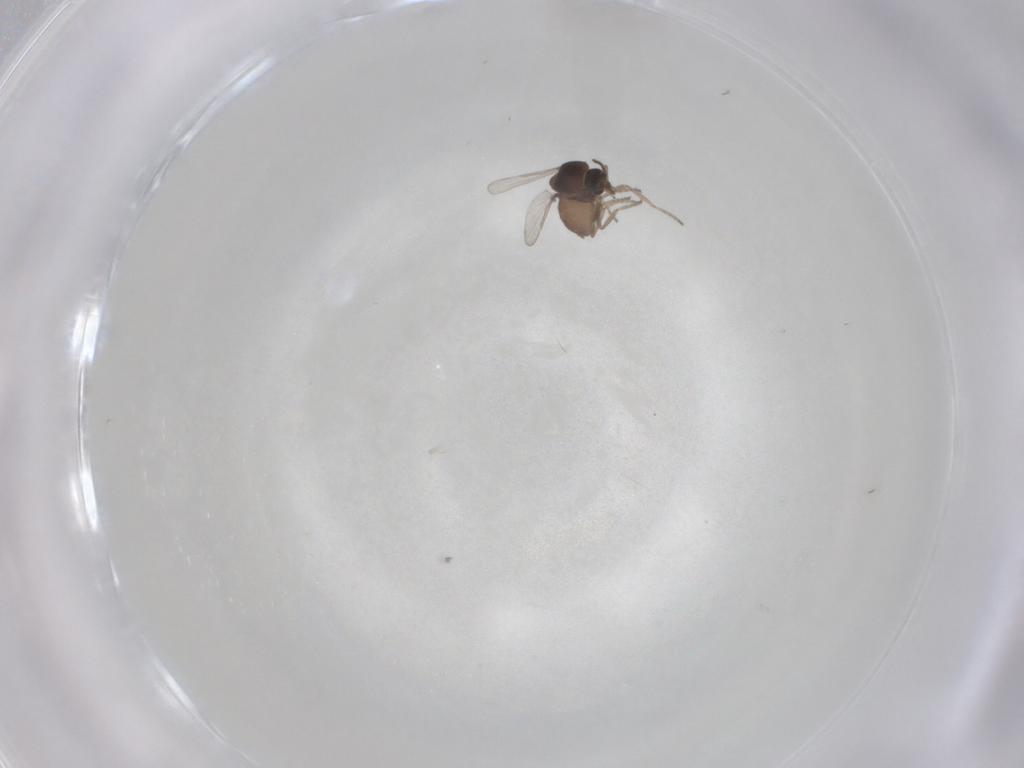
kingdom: Animalia
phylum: Arthropoda
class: Insecta
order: Diptera
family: Ceratopogonidae
